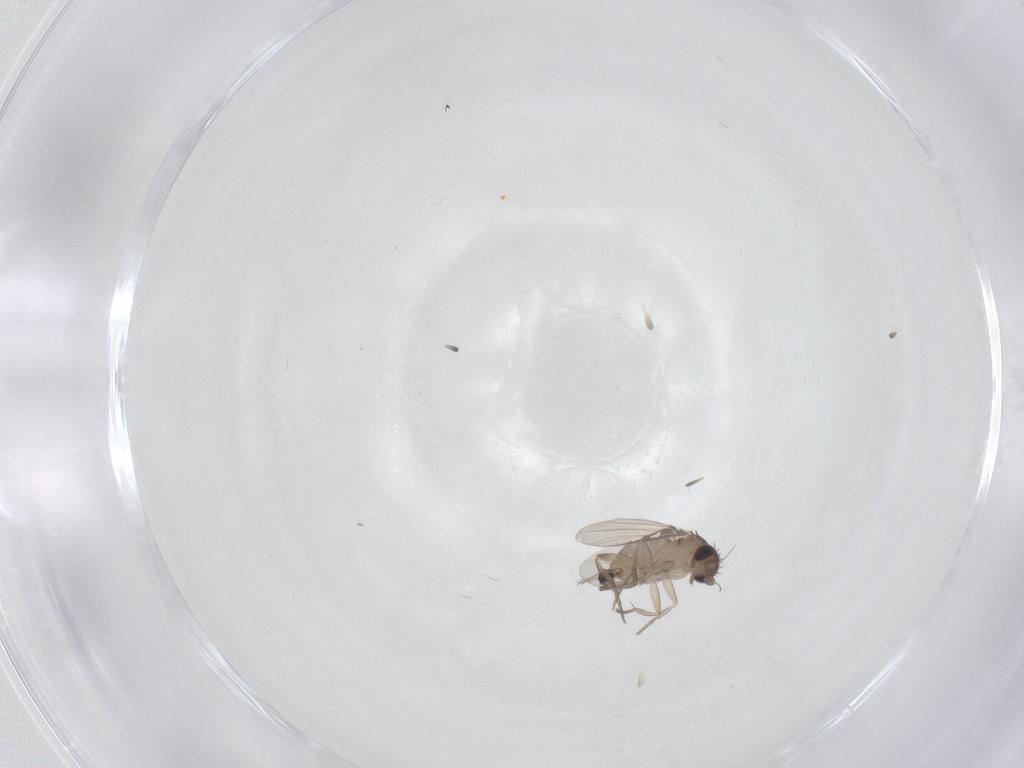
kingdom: Animalia
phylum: Arthropoda
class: Insecta
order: Diptera
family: Phoridae
